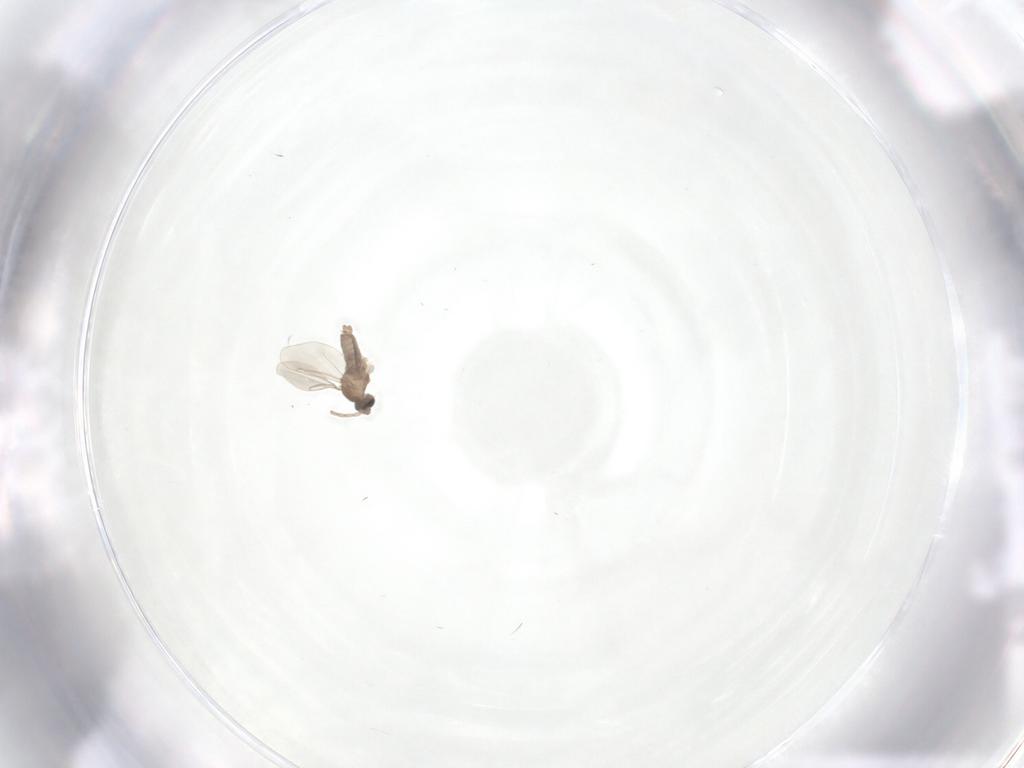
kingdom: Animalia
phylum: Arthropoda
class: Insecta
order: Diptera
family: Cecidomyiidae
